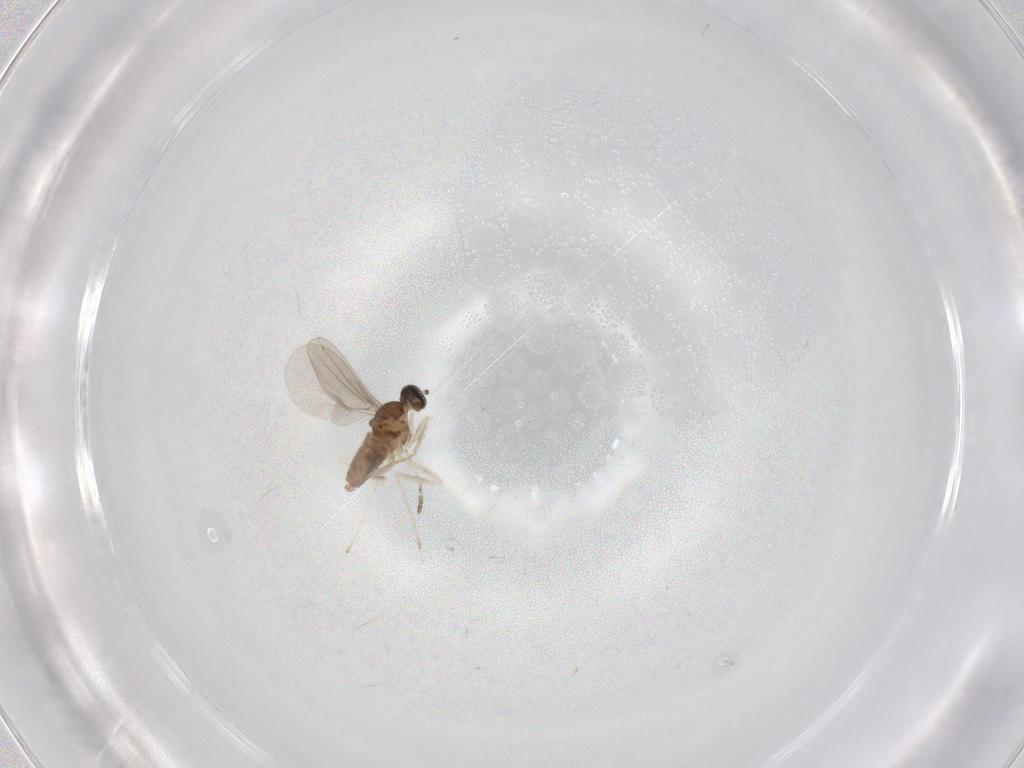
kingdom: Animalia
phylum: Arthropoda
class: Insecta
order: Diptera
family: Cecidomyiidae
